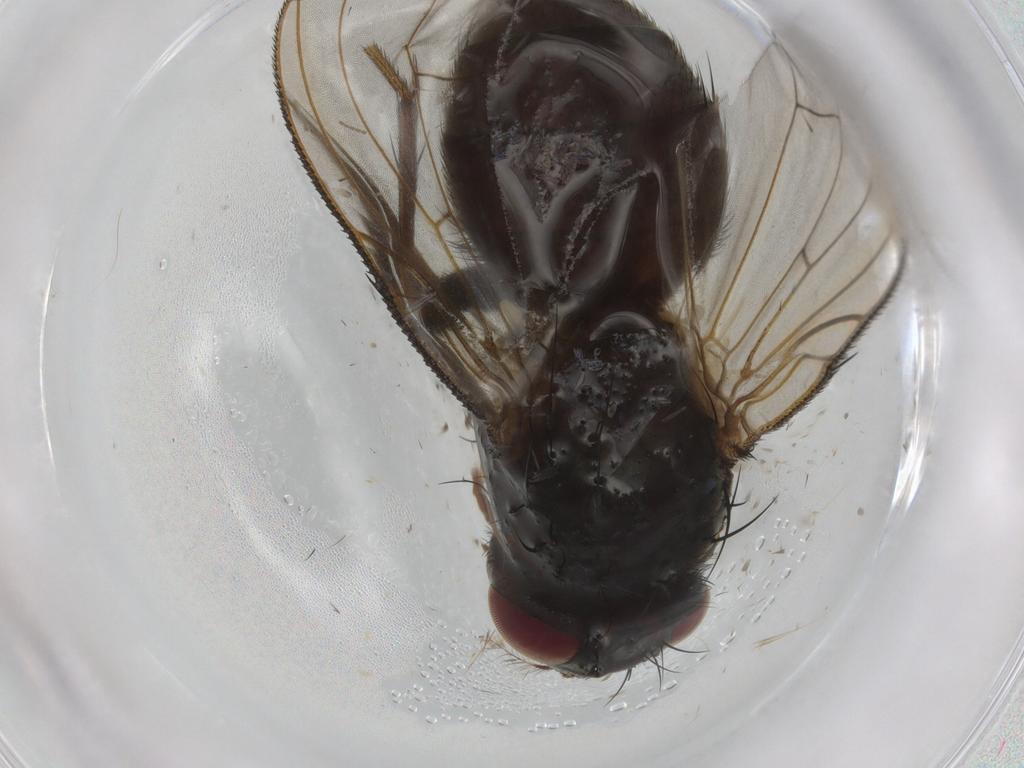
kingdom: Animalia
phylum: Arthropoda
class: Insecta
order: Diptera
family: Calliphoridae
